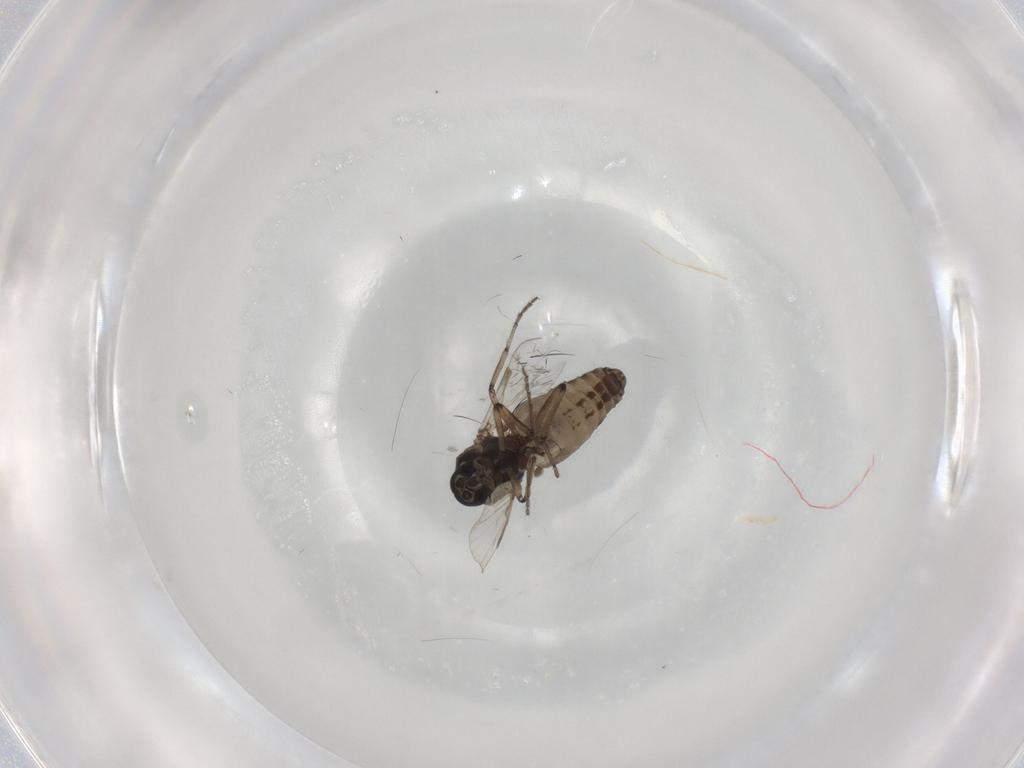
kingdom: Animalia
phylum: Arthropoda
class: Insecta
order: Diptera
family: Ceratopogonidae
